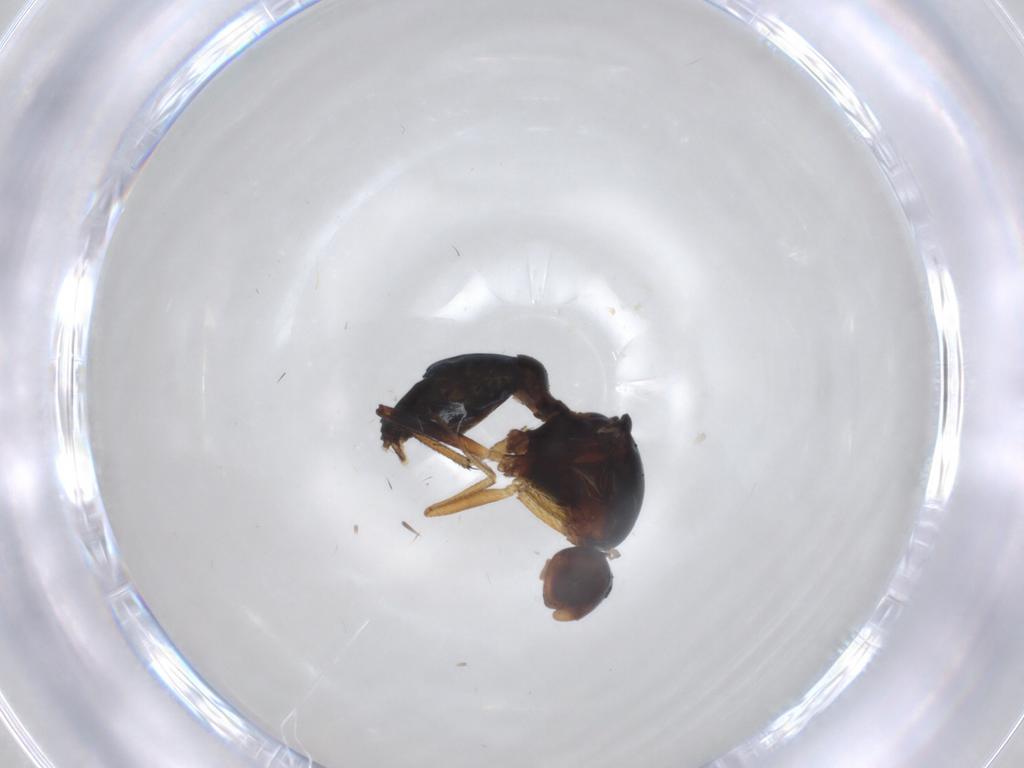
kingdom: Animalia
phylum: Arthropoda
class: Insecta
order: Diptera
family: Sepsidae
